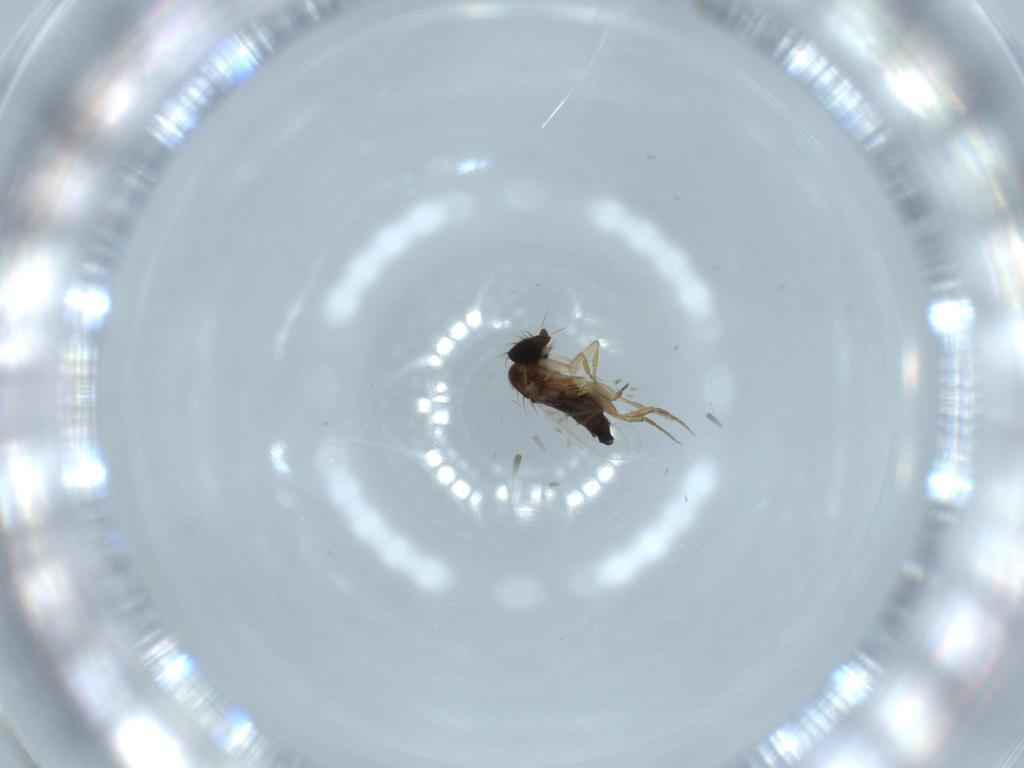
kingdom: Animalia
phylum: Arthropoda
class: Insecta
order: Diptera
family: Phoridae
